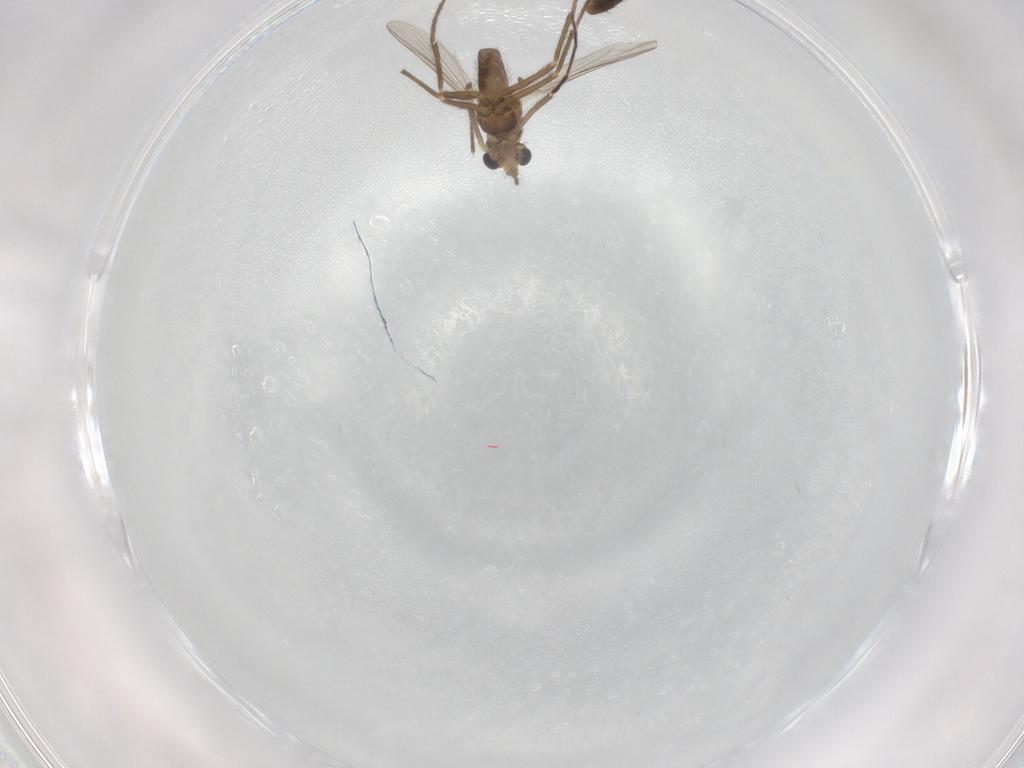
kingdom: Animalia
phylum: Arthropoda
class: Insecta
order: Diptera
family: Chironomidae
